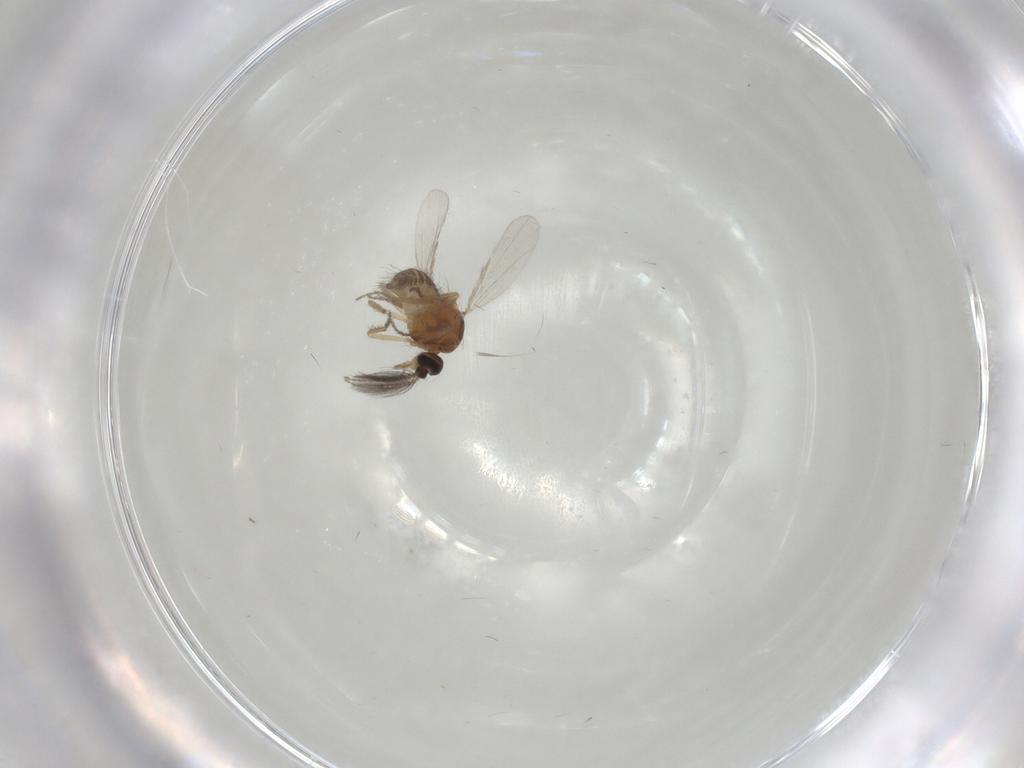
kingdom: Animalia
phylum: Arthropoda
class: Insecta
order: Diptera
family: Ceratopogonidae
